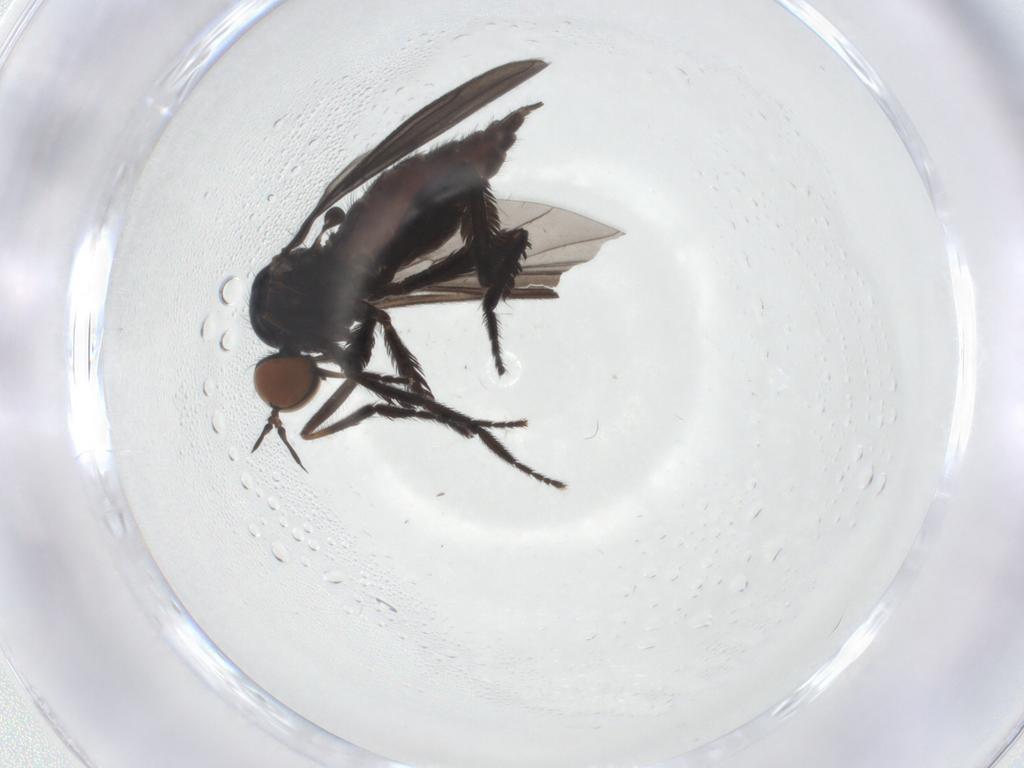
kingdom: Animalia
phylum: Arthropoda
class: Insecta
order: Diptera
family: Empididae
